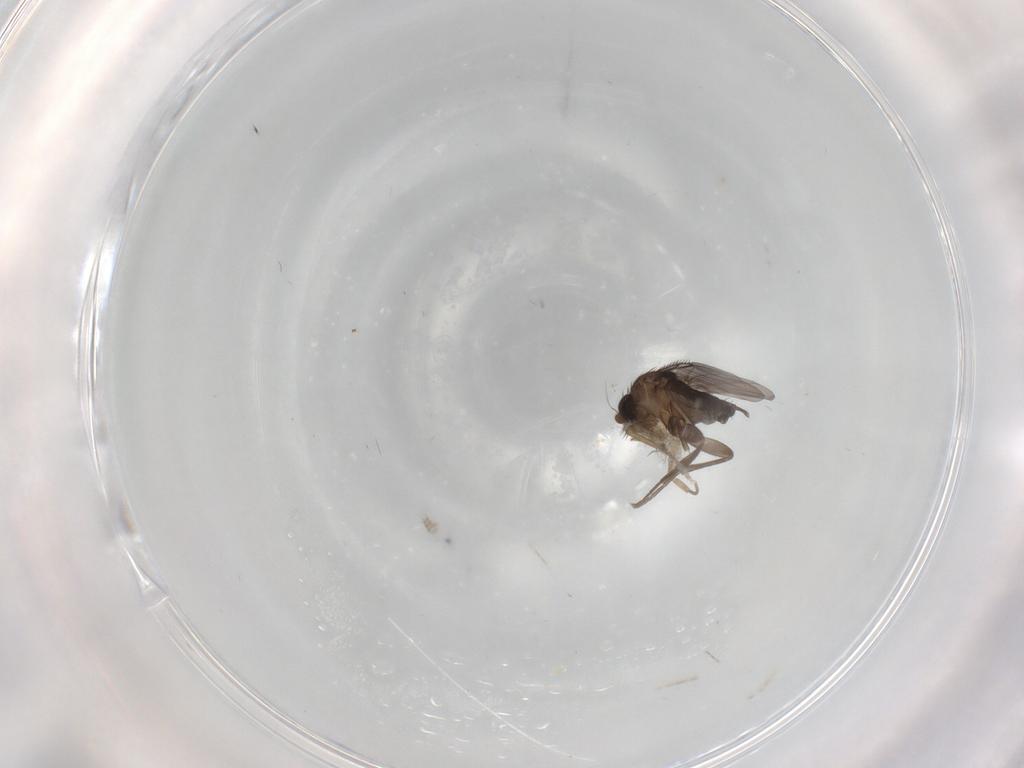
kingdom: Animalia
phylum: Arthropoda
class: Insecta
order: Diptera
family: Phoridae
